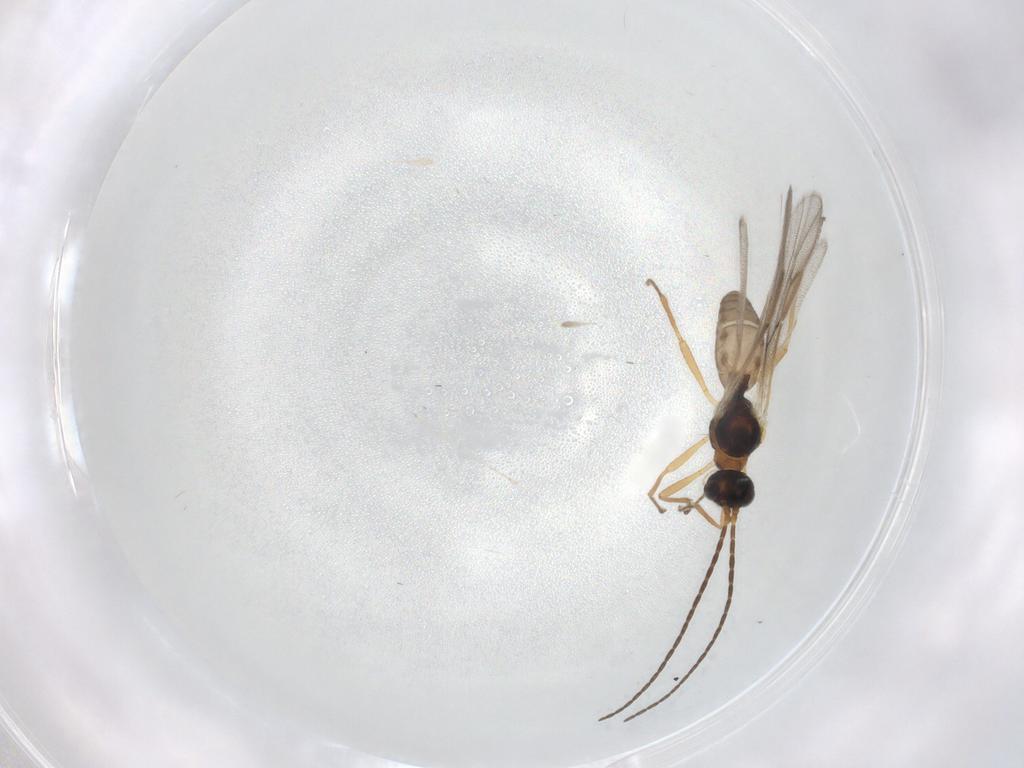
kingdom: Animalia
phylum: Arthropoda
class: Insecta
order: Hymenoptera
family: Braconidae
